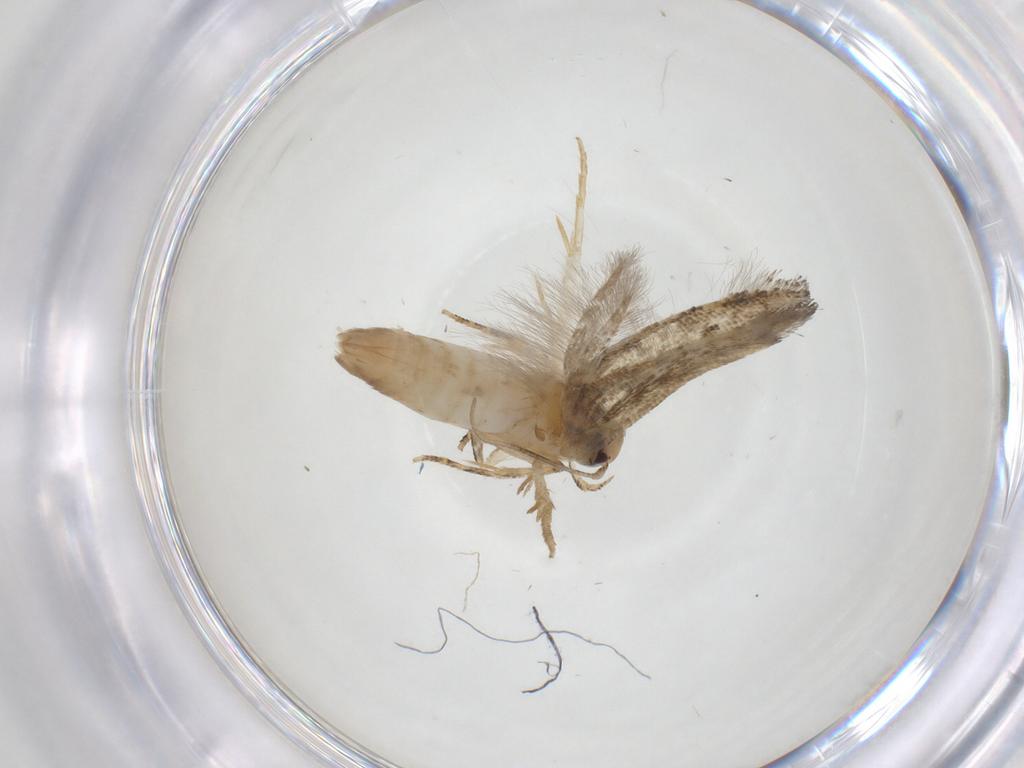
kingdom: Animalia
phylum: Arthropoda
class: Insecta
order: Lepidoptera
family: Gelechiidae
